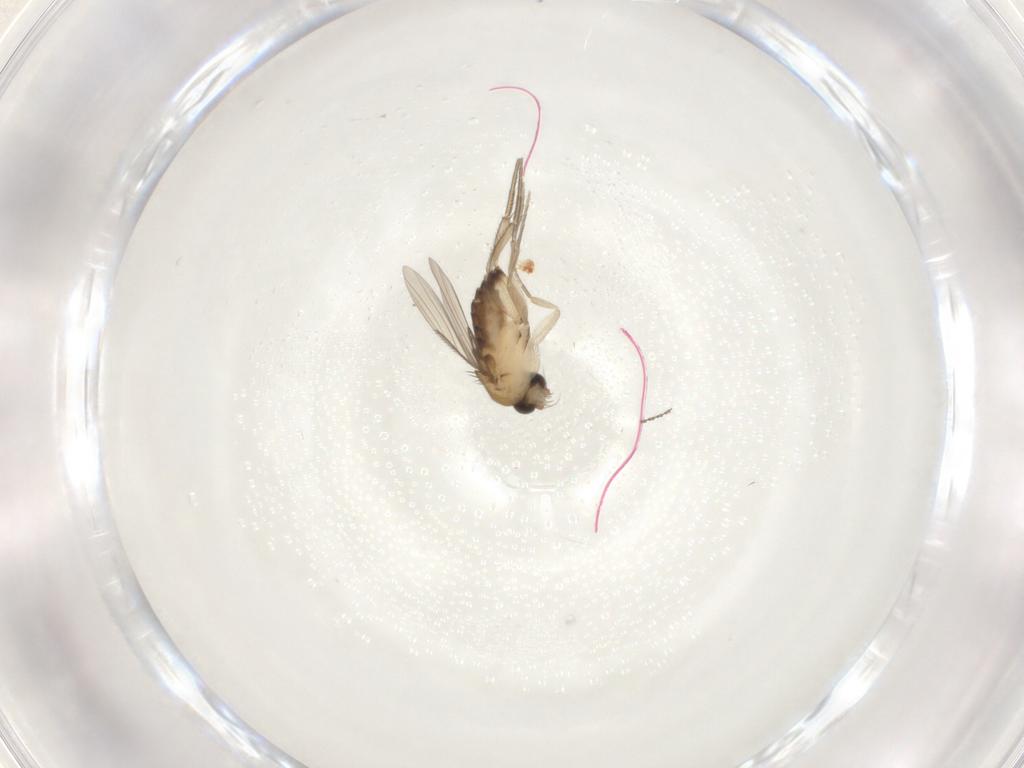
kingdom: Animalia
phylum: Arthropoda
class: Insecta
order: Diptera
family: Phoridae
